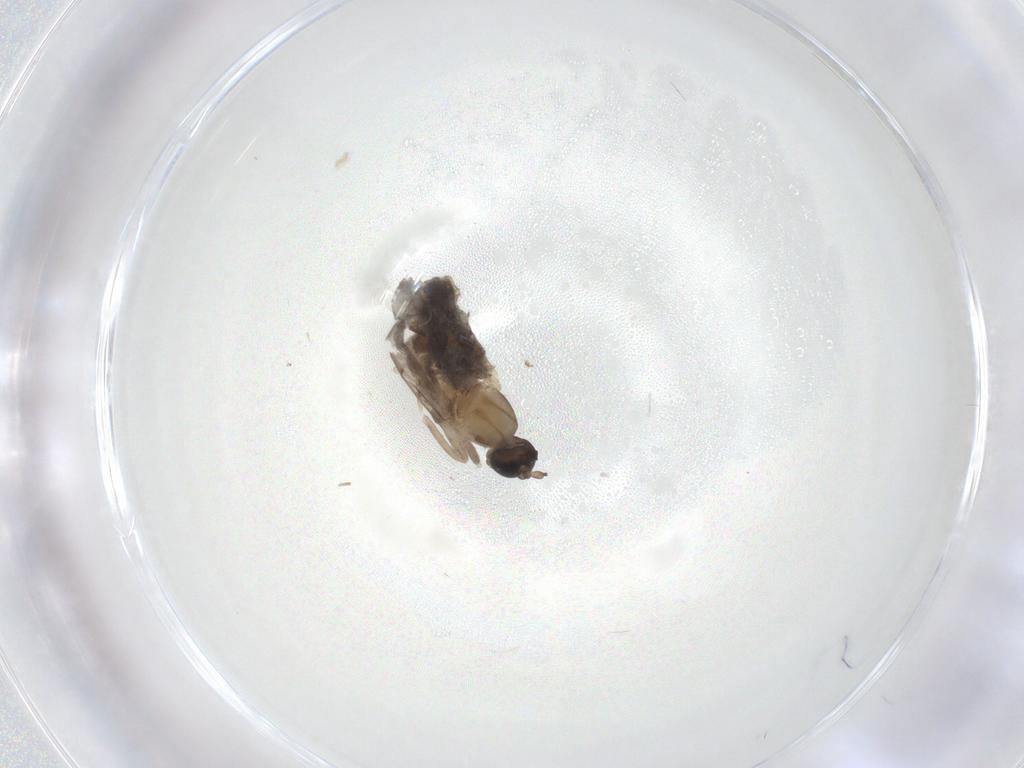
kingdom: Animalia
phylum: Arthropoda
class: Insecta
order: Diptera
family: Cecidomyiidae
